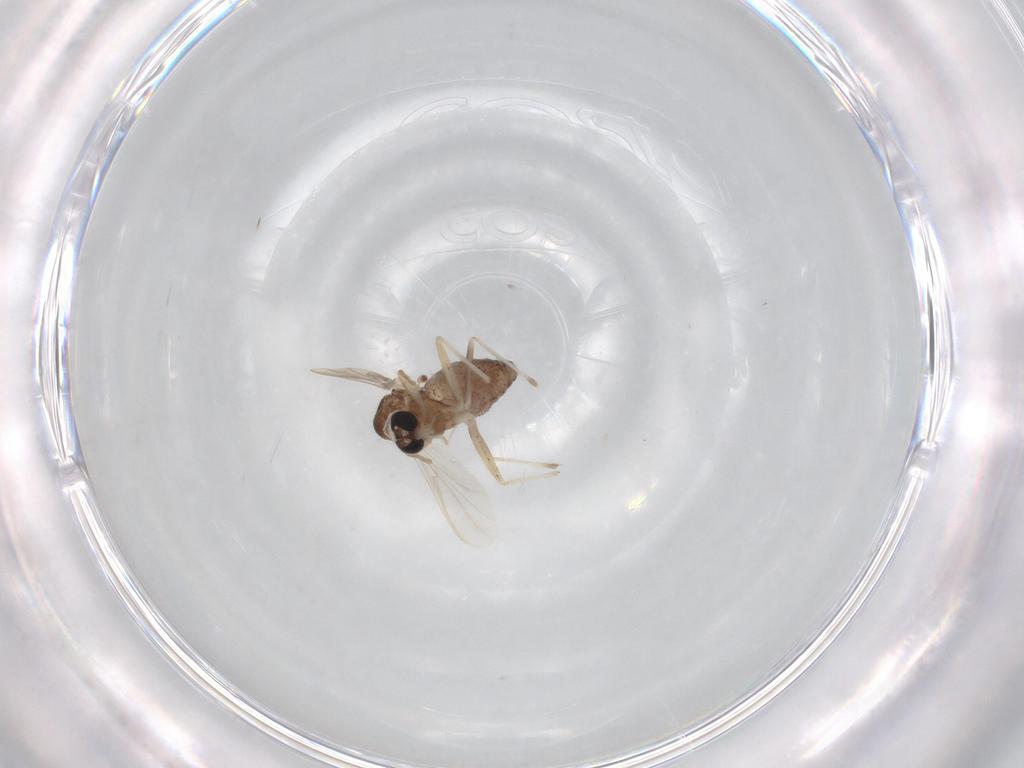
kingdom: Animalia
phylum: Arthropoda
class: Insecta
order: Diptera
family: Chironomidae
